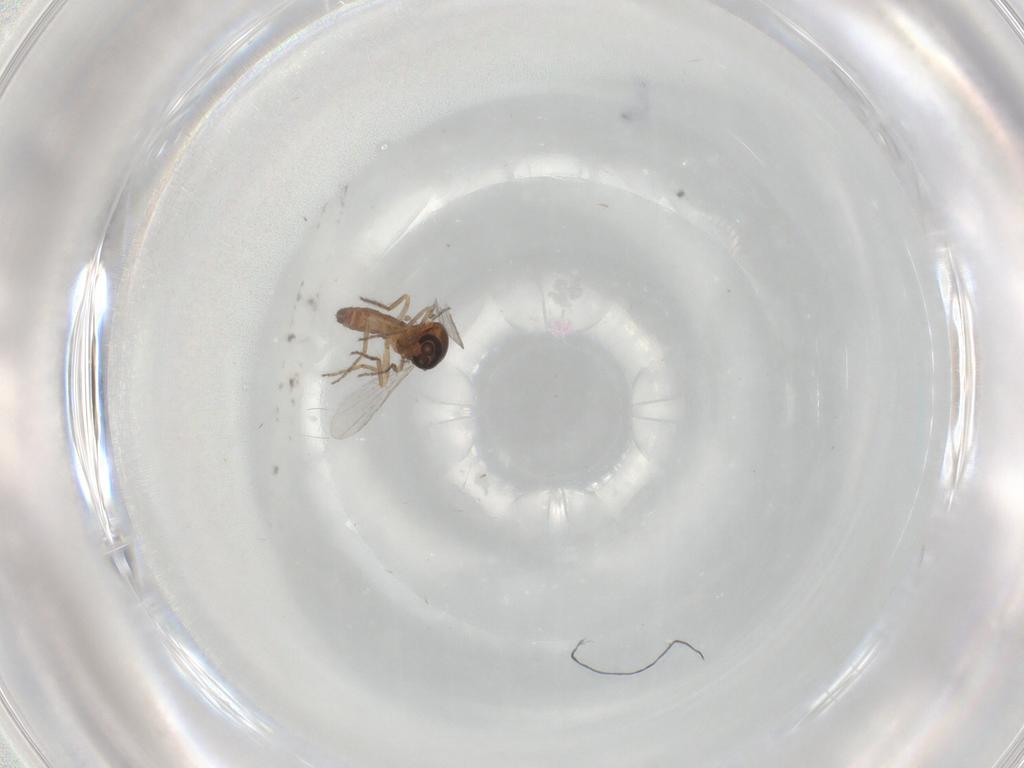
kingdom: Animalia
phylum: Arthropoda
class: Insecta
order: Diptera
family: Ceratopogonidae
